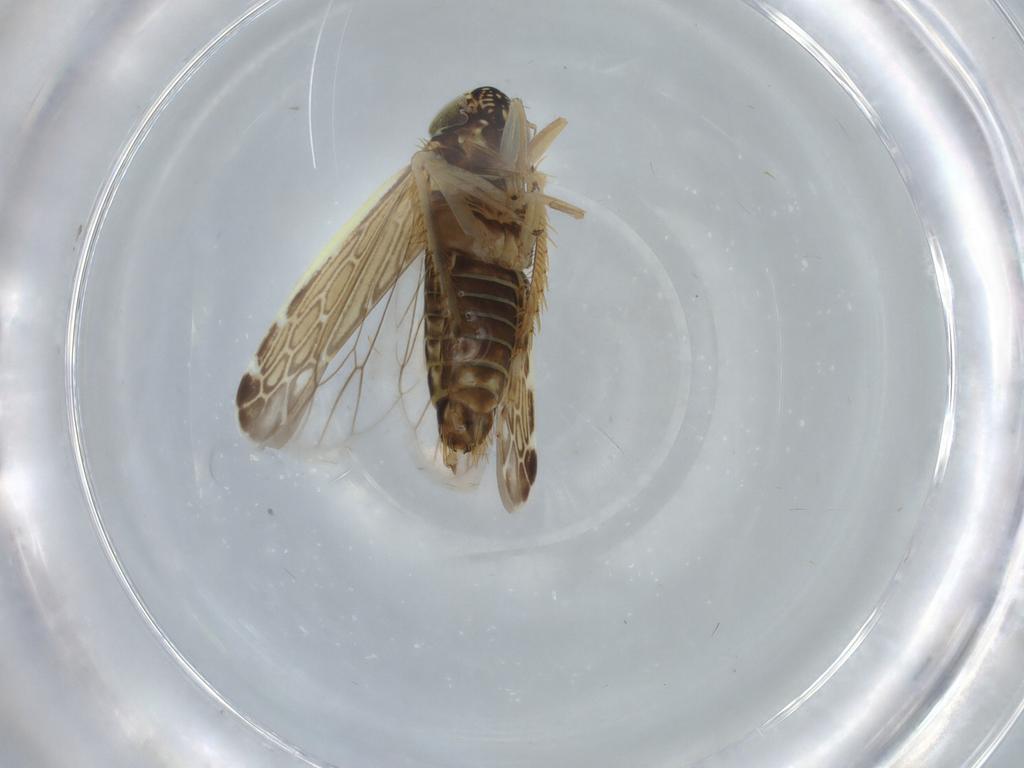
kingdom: Animalia
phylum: Arthropoda
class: Insecta
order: Hemiptera
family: Cicadellidae
